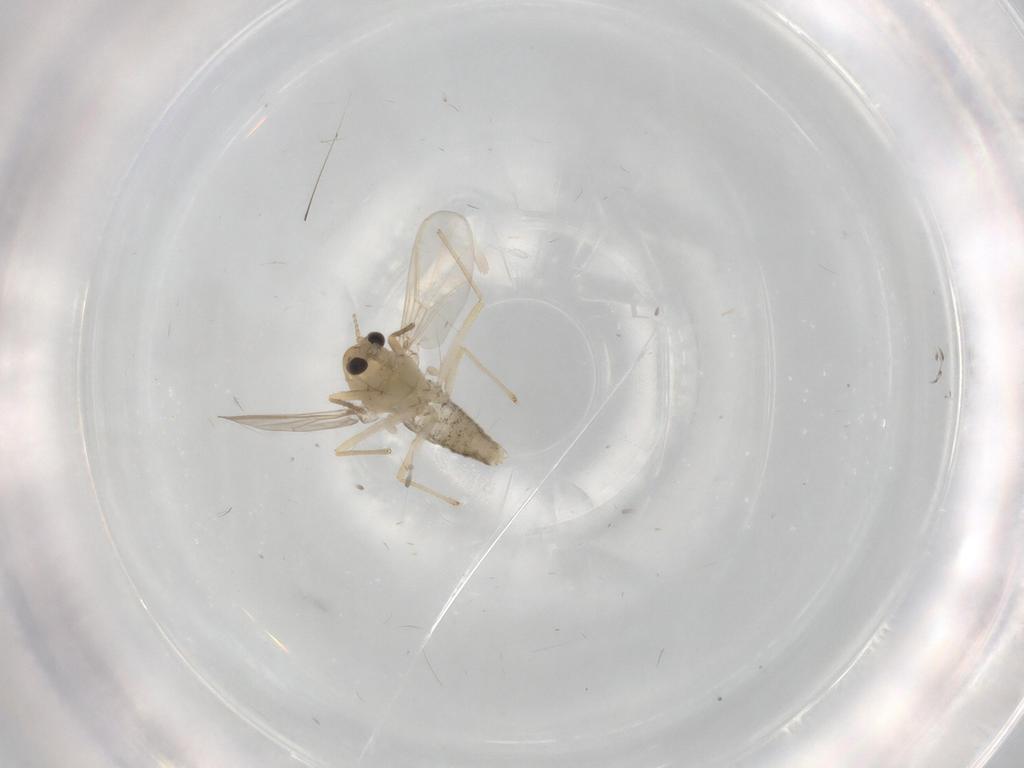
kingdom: Animalia
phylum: Arthropoda
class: Insecta
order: Diptera
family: Chironomidae
